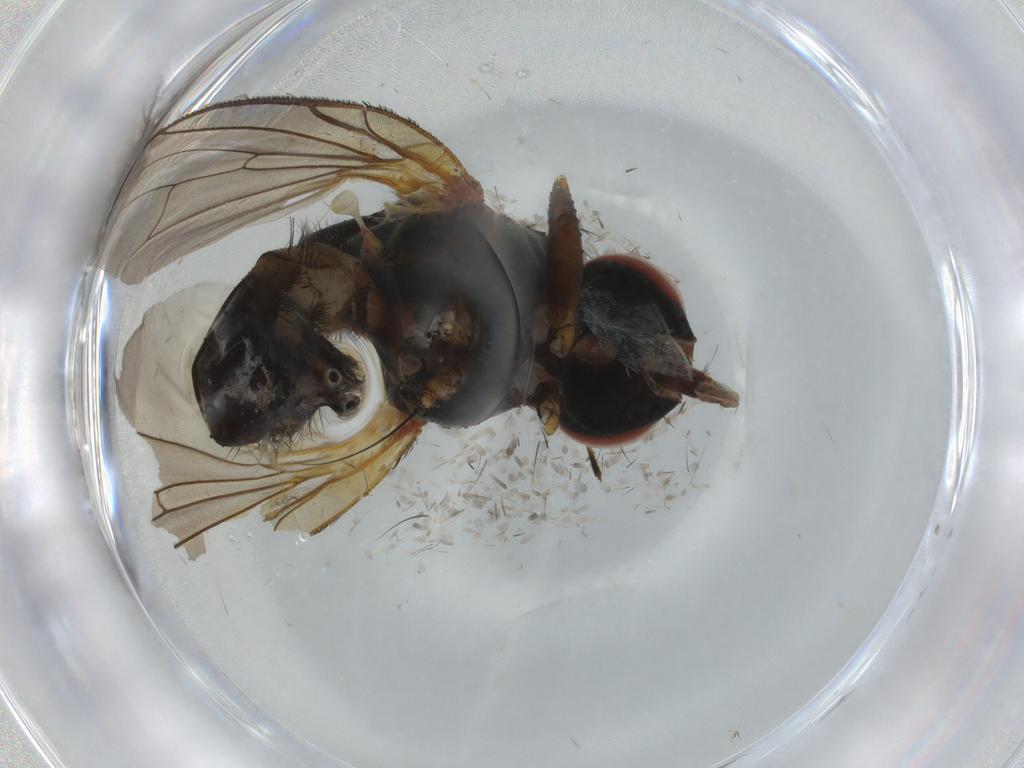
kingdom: Animalia
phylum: Arthropoda
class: Insecta
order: Diptera
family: Anthomyiidae
